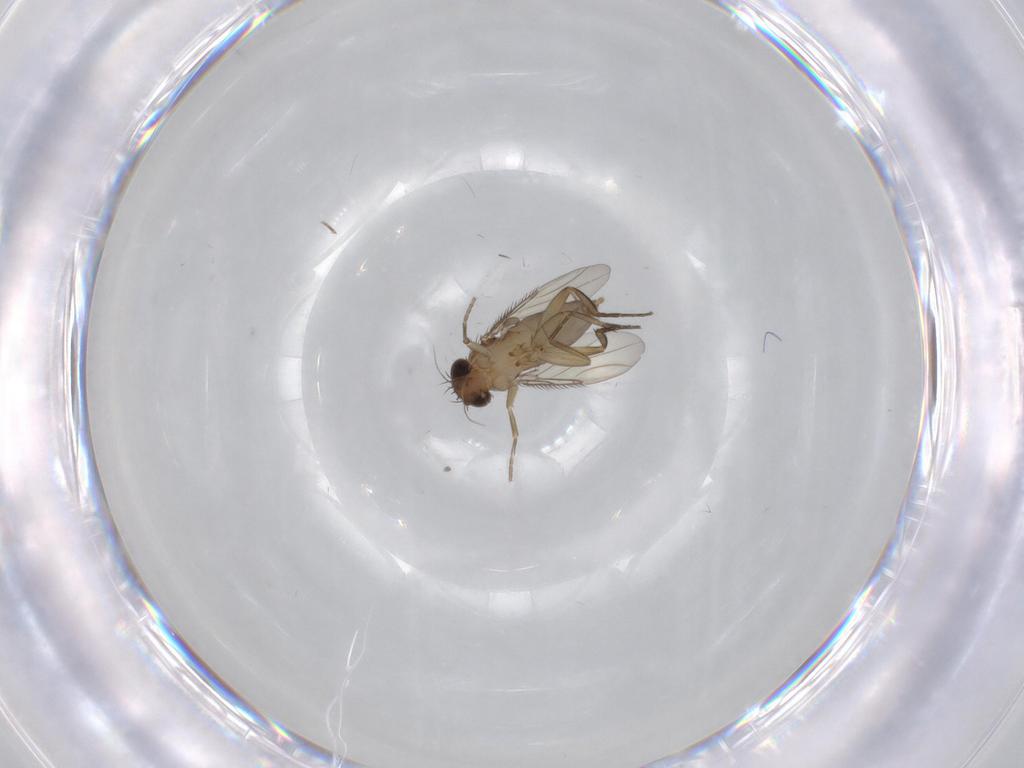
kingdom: Animalia
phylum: Arthropoda
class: Insecta
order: Diptera
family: Phoridae
